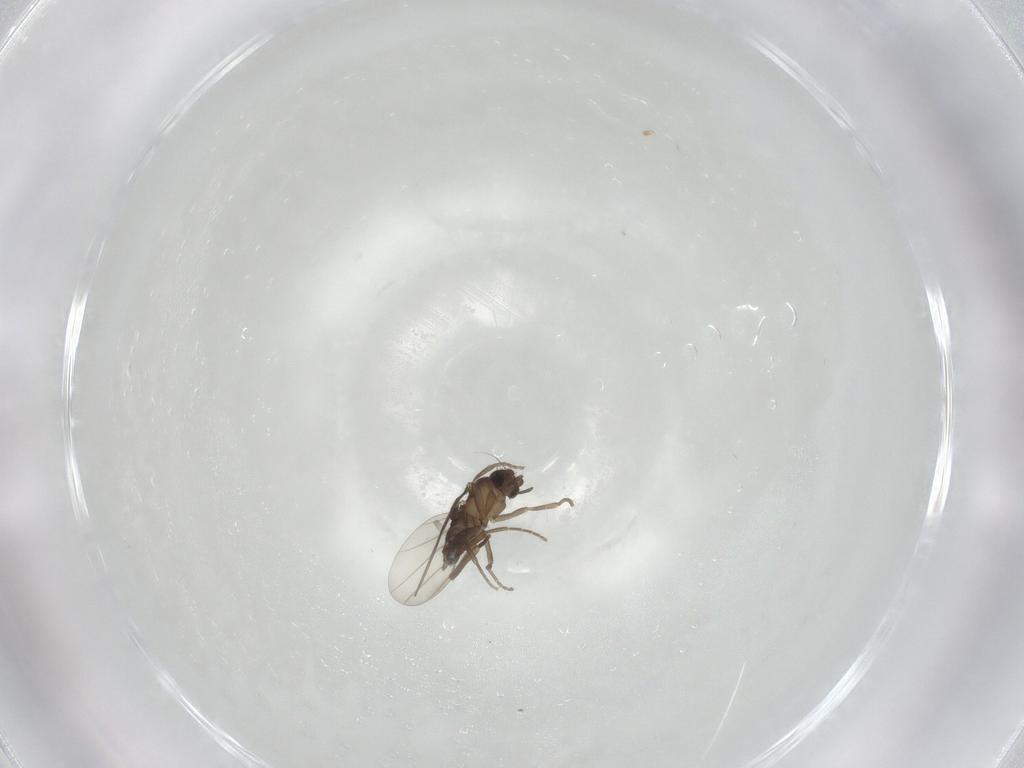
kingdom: Animalia
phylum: Arthropoda
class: Insecta
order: Diptera
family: Phoridae
